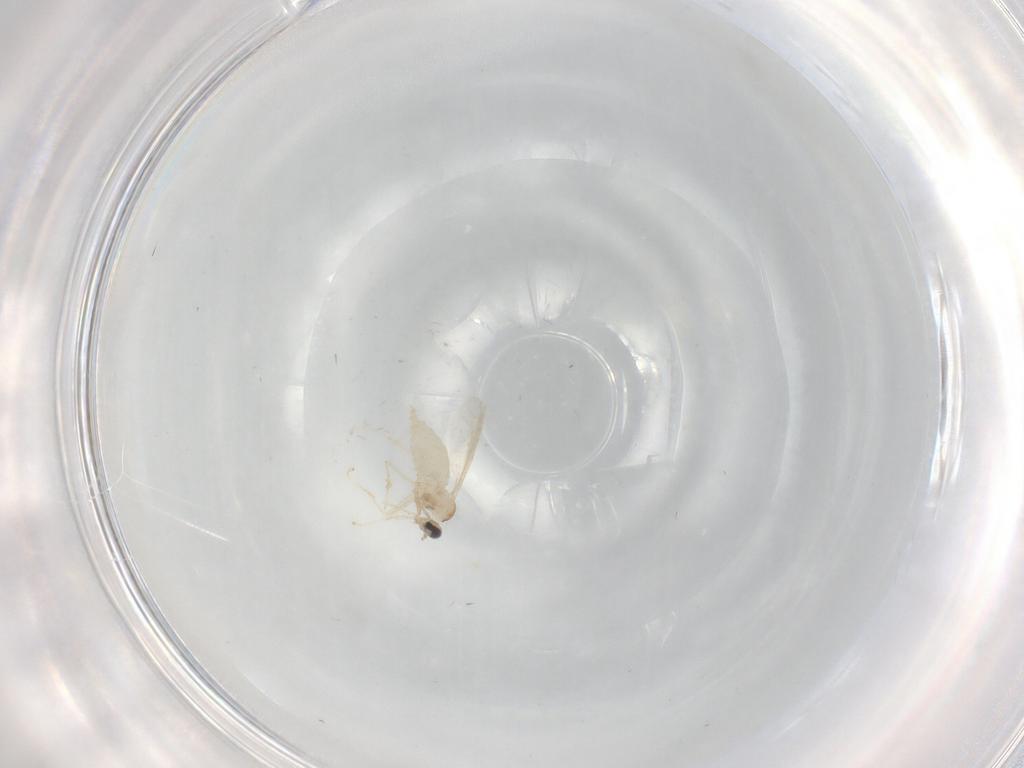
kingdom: Animalia
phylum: Arthropoda
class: Insecta
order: Diptera
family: Cecidomyiidae
